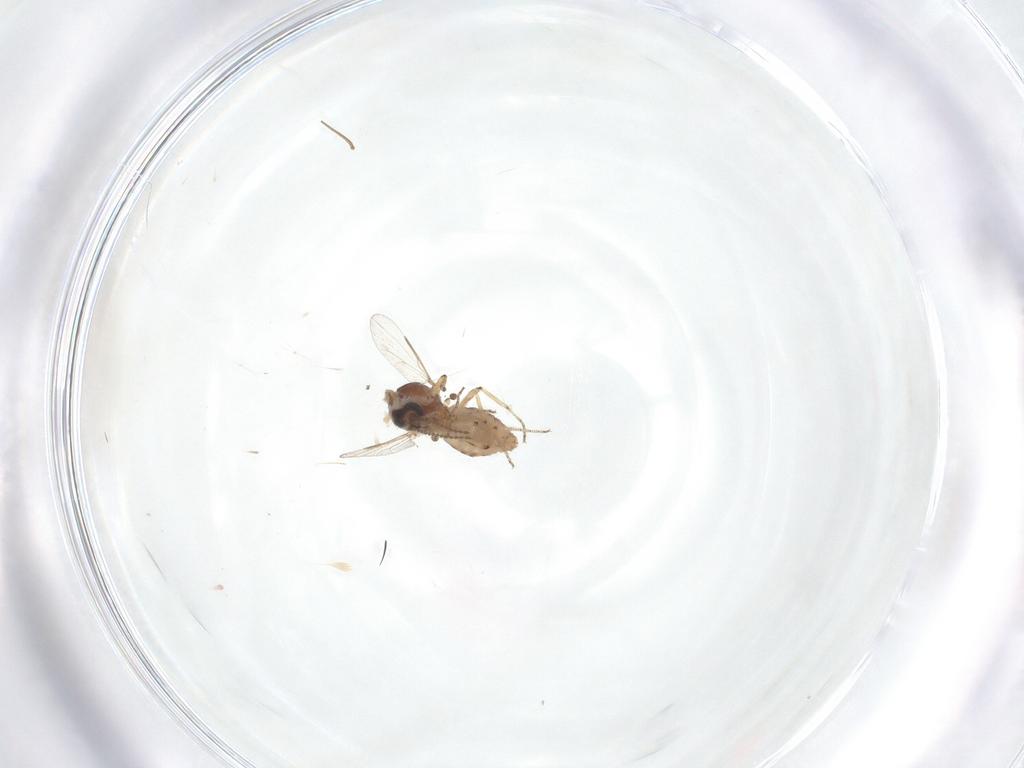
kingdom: Animalia
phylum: Arthropoda
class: Insecta
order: Diptera
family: Ceratopogonidae
